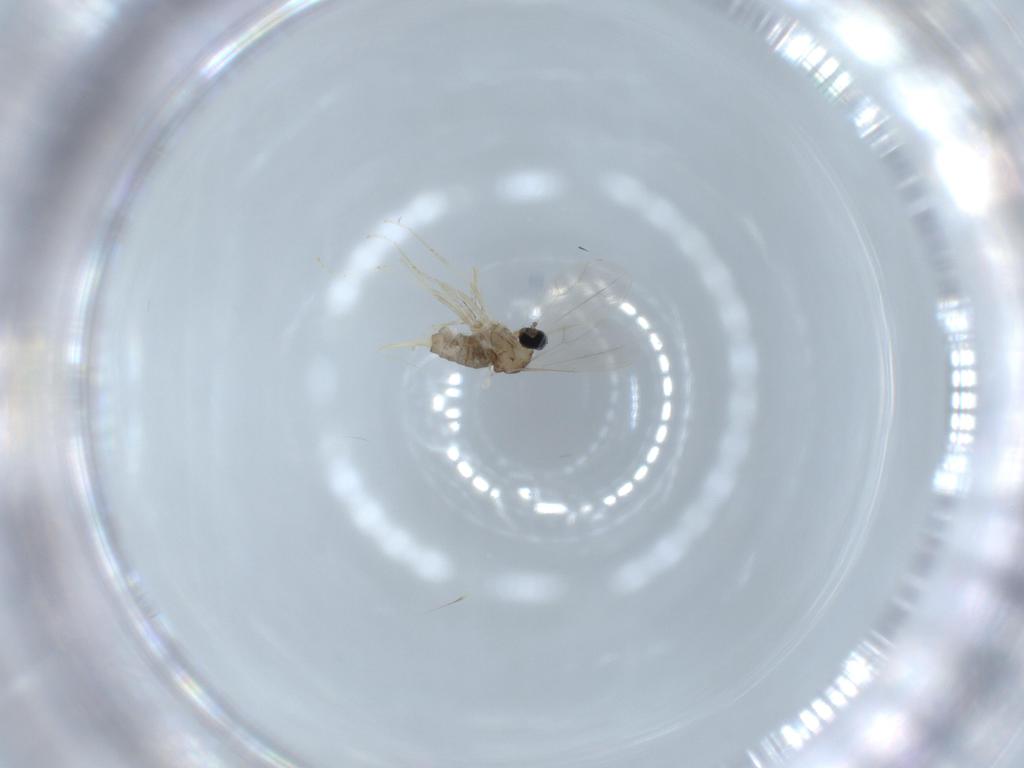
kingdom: Animalia
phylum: Arthropoda
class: Insecta
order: Diptera
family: Cecidomyiidae
